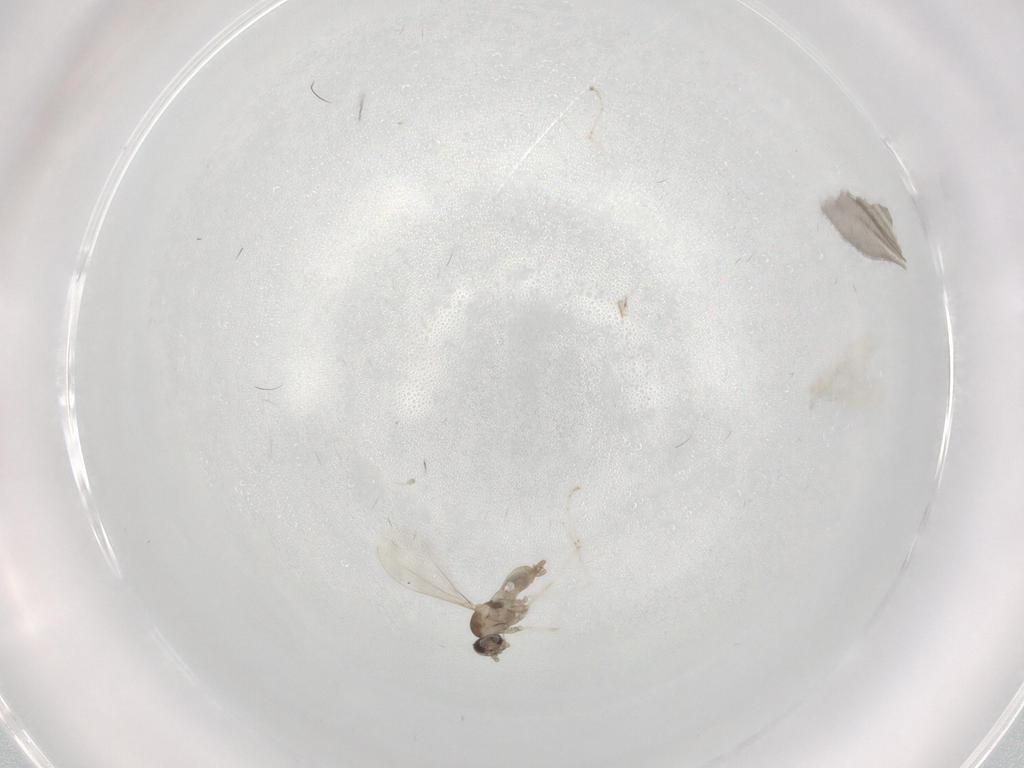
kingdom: Animalia
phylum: Arthropoda
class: Insecta
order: Diptera
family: Cecidomyiidae
